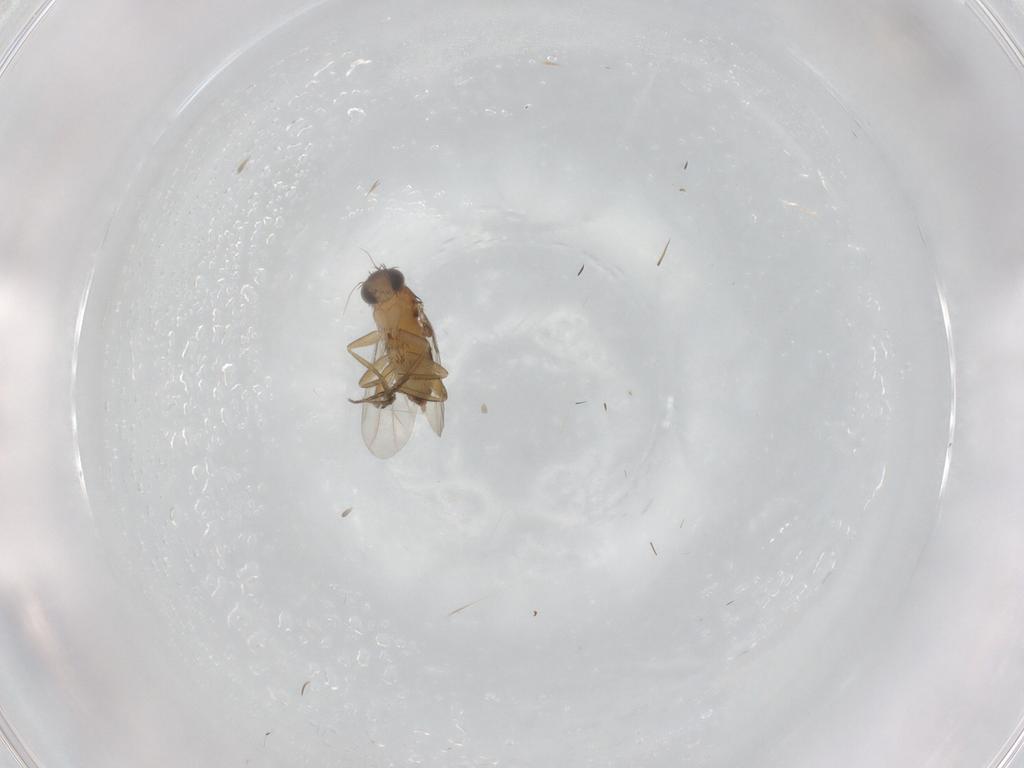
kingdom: Animalia
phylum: Arthropoda
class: Insecta
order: Diptera
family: Phoridae
